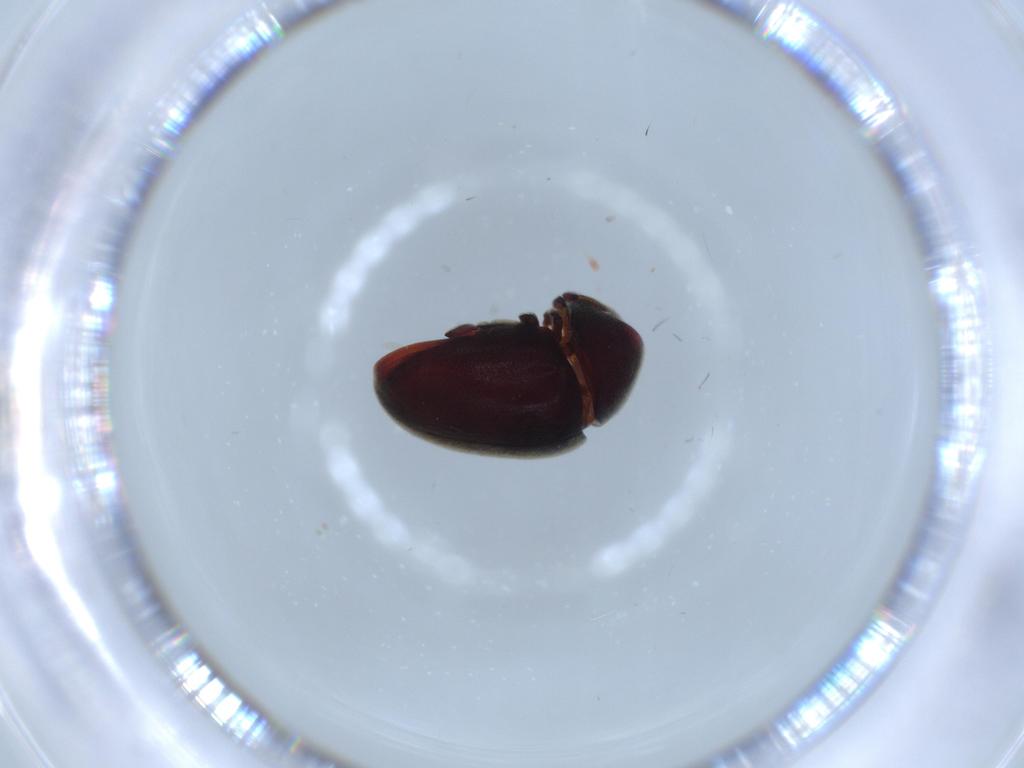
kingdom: Animalia
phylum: Arthropoda
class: Insecta
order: Coleoptera
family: Ptinidae
